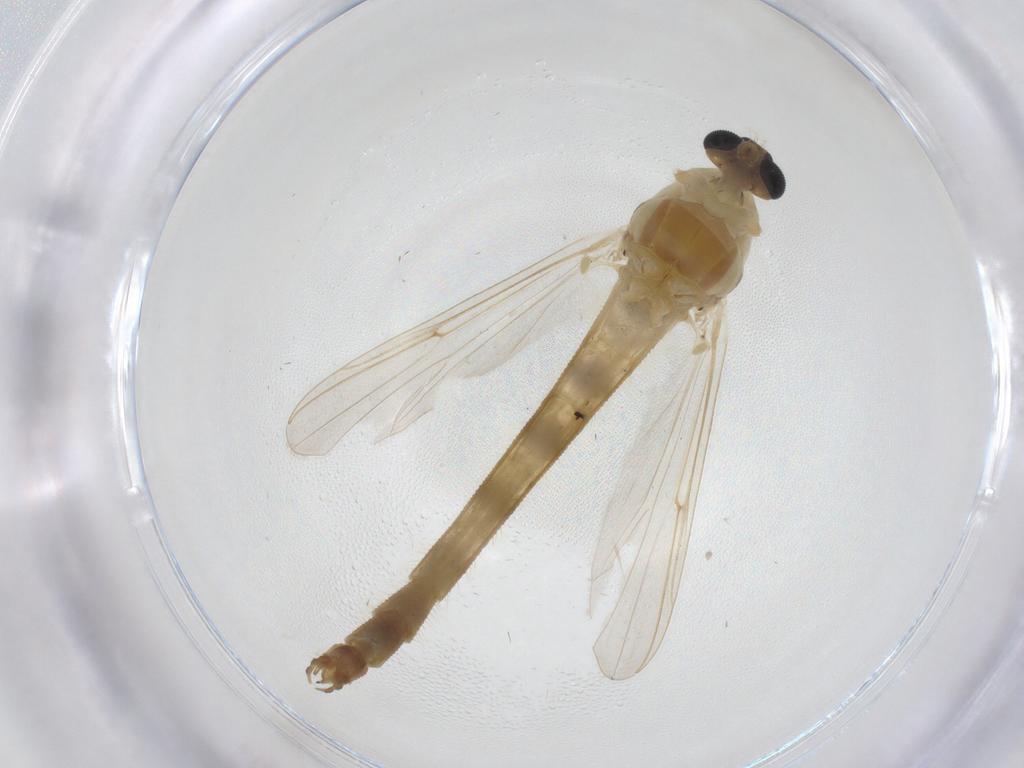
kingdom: Animalia
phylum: Arthropoda
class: Insecta
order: Diptera
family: Chironomidae
